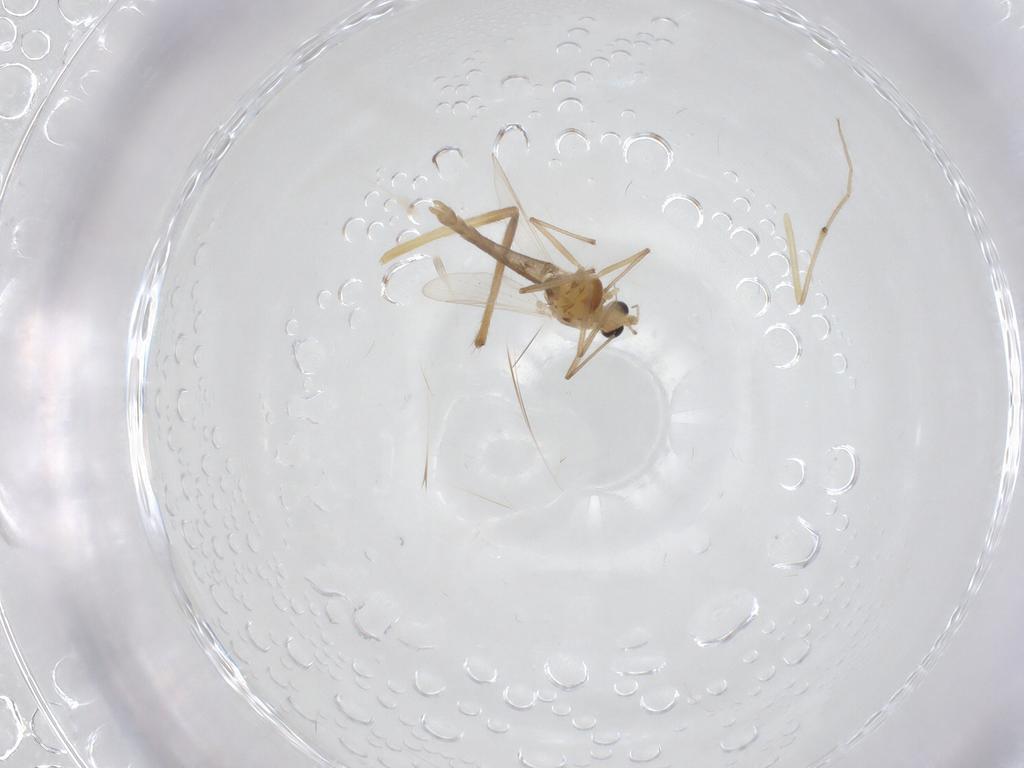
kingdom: Animalia
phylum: Arthropoda
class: Insecta
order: Diptera
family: Chironomidae
